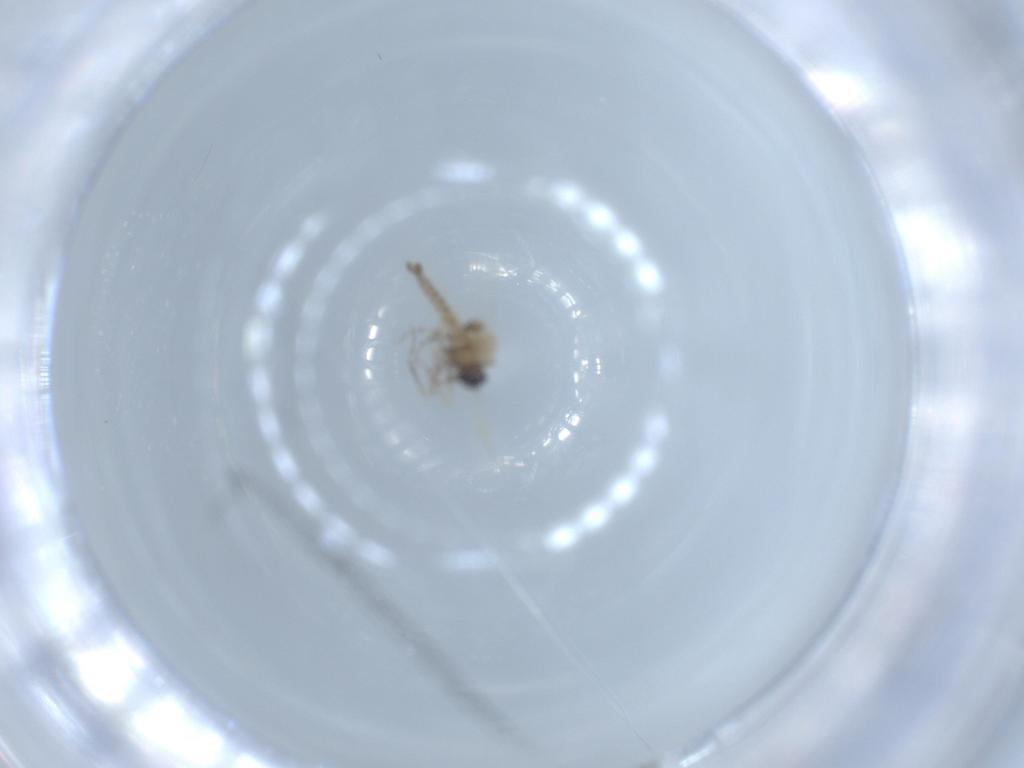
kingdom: Animalia
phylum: Arthropoda
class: Insecta
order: Diptera
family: Ceratopogonidae
